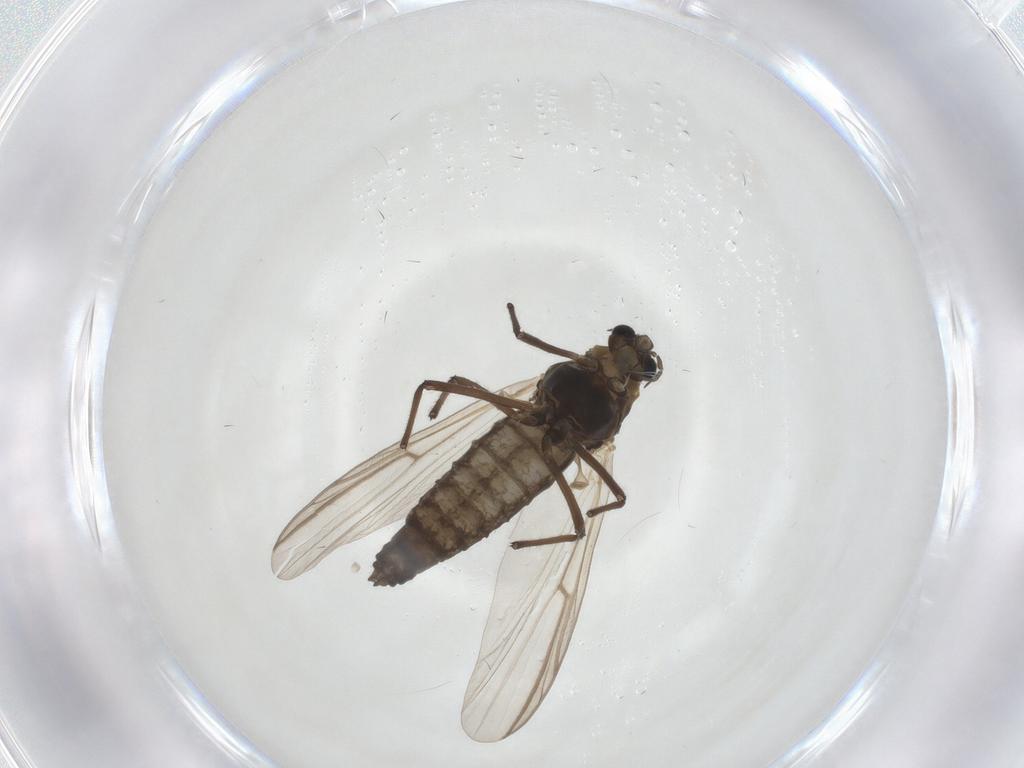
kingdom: Animalia
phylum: Arthropoda
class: Insecta
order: Diptera
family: Chironomidae
